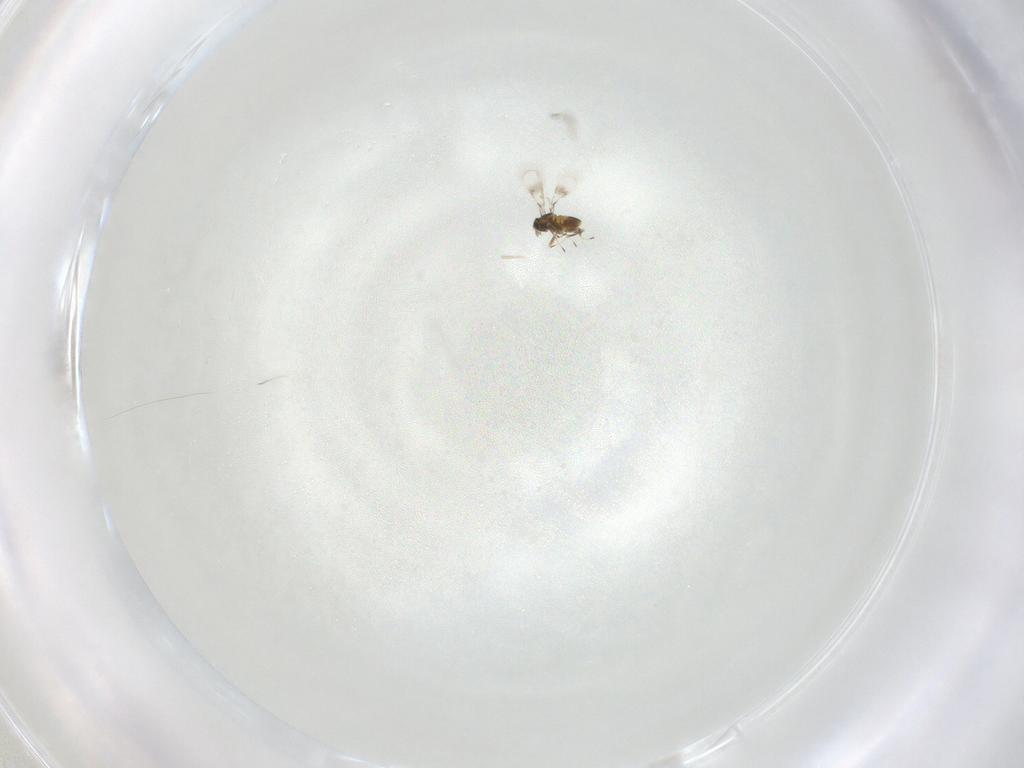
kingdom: Animalia
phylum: Arthropoda
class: Insecta
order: Hymenoptera
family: Trichogrammatidae
